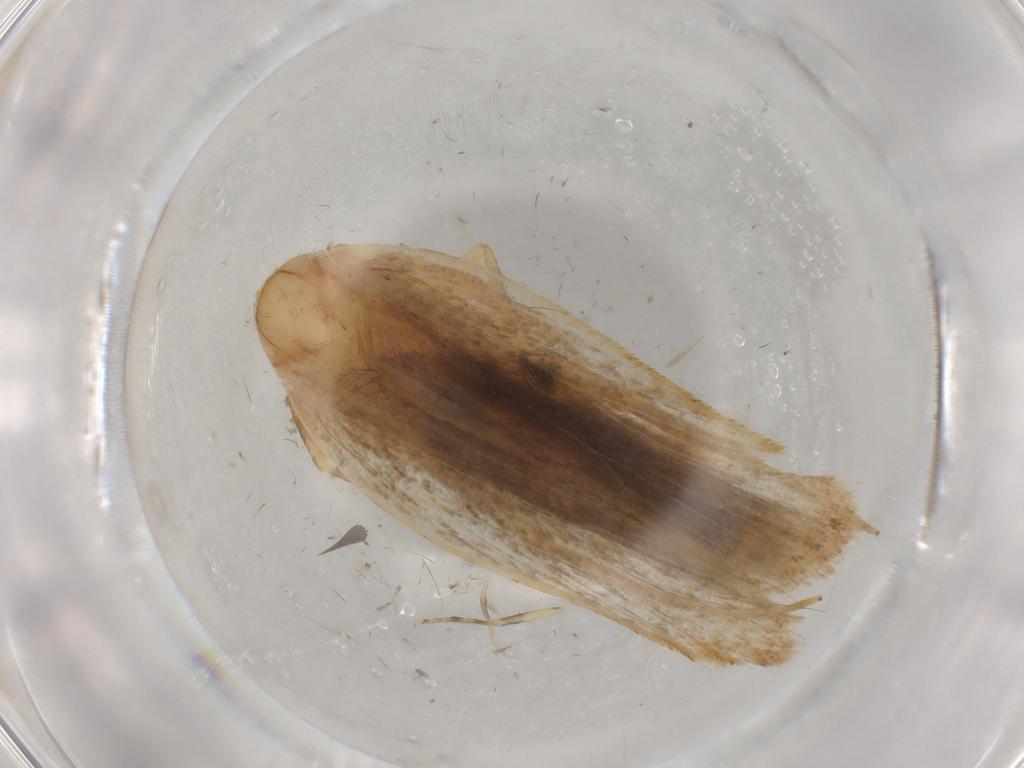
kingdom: Animalia
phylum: Arthropoda
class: Insecta
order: Lepidoptera
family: Gelechiidae
